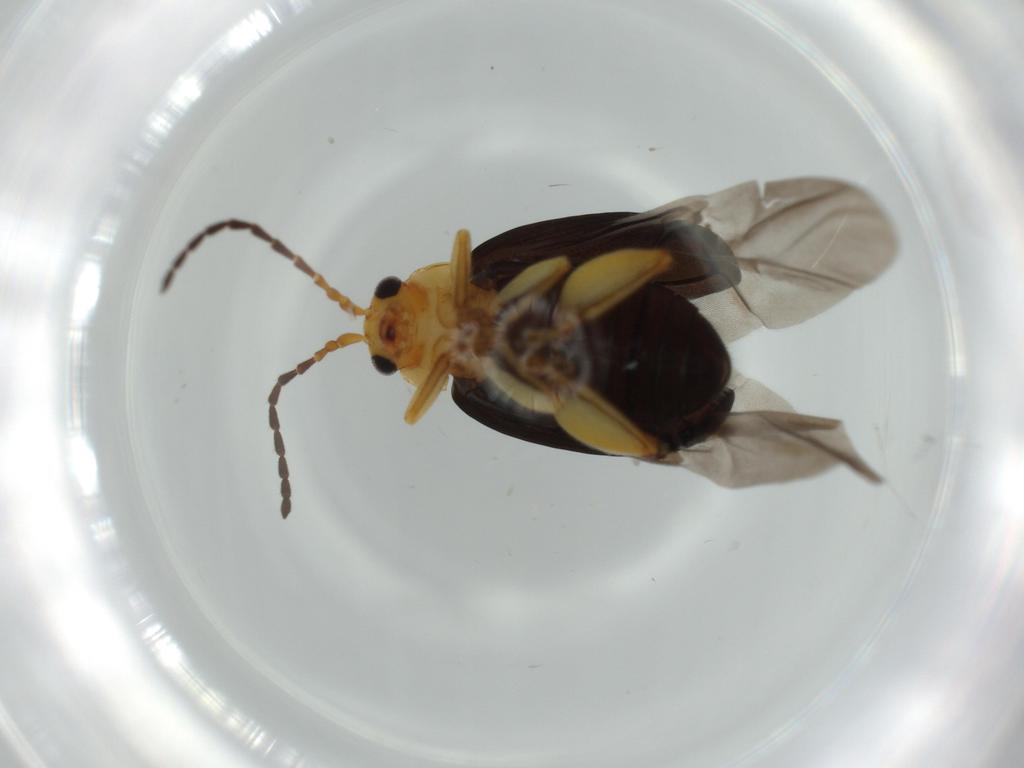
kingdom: Animalia
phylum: Arthropoda
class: Insecta
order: Coleoptera
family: Chrysomelidae
